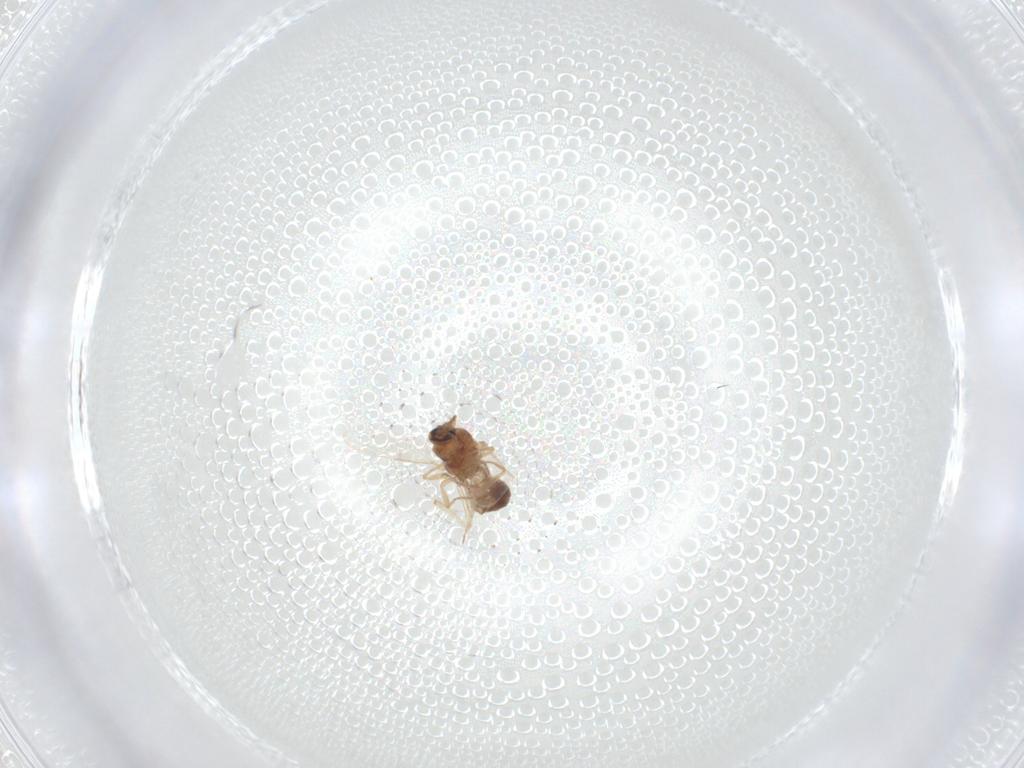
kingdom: Animalia
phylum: Arthropoda
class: Insecta
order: Diptera
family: Ceratopogonidae
